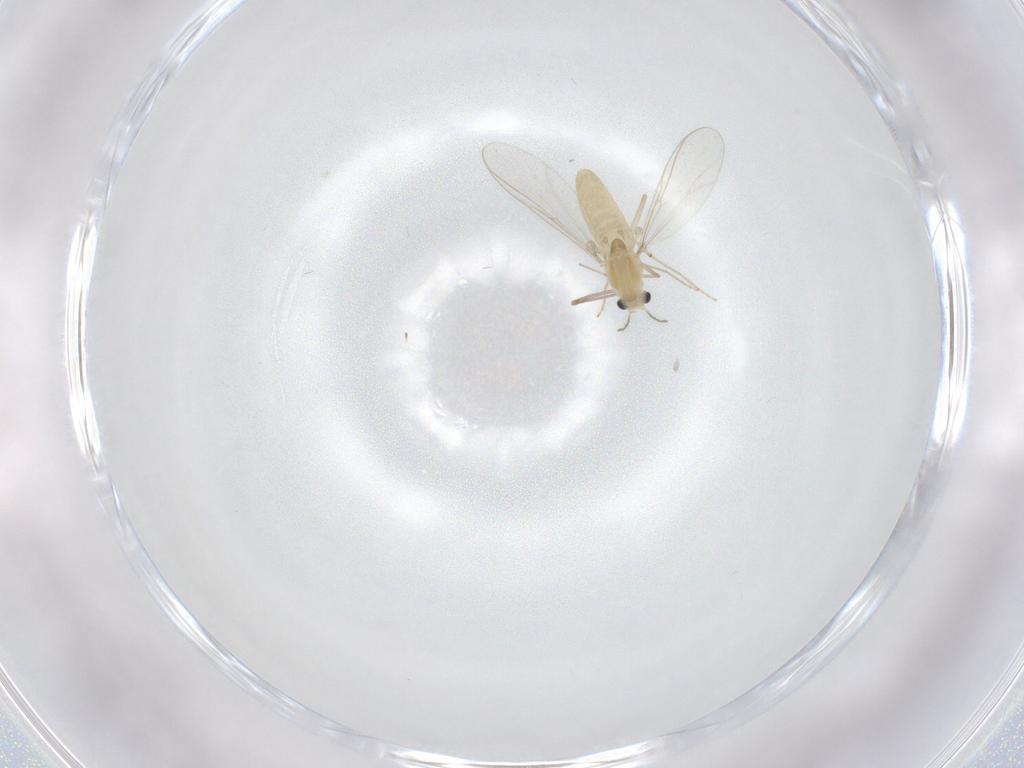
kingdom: Animalia
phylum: Arthropoda
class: Insecta
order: Diptera
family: Chironomidae
